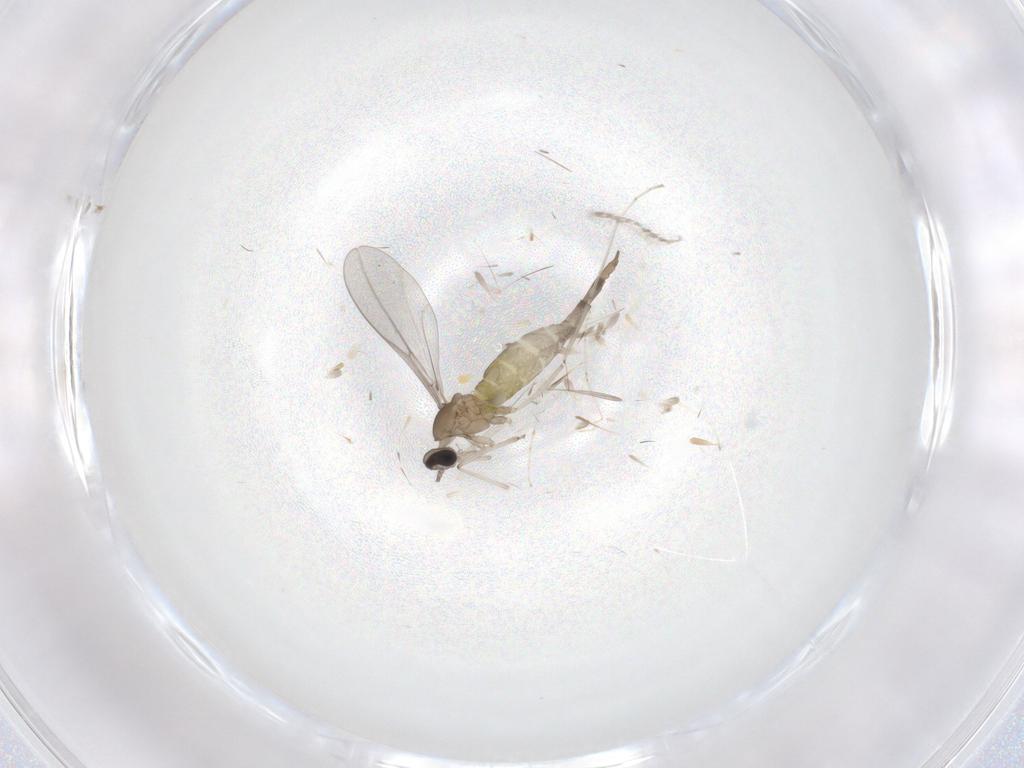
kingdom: Animalia
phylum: Arthropoda
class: Insecta
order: Diptera
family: Cecidomyiidae
